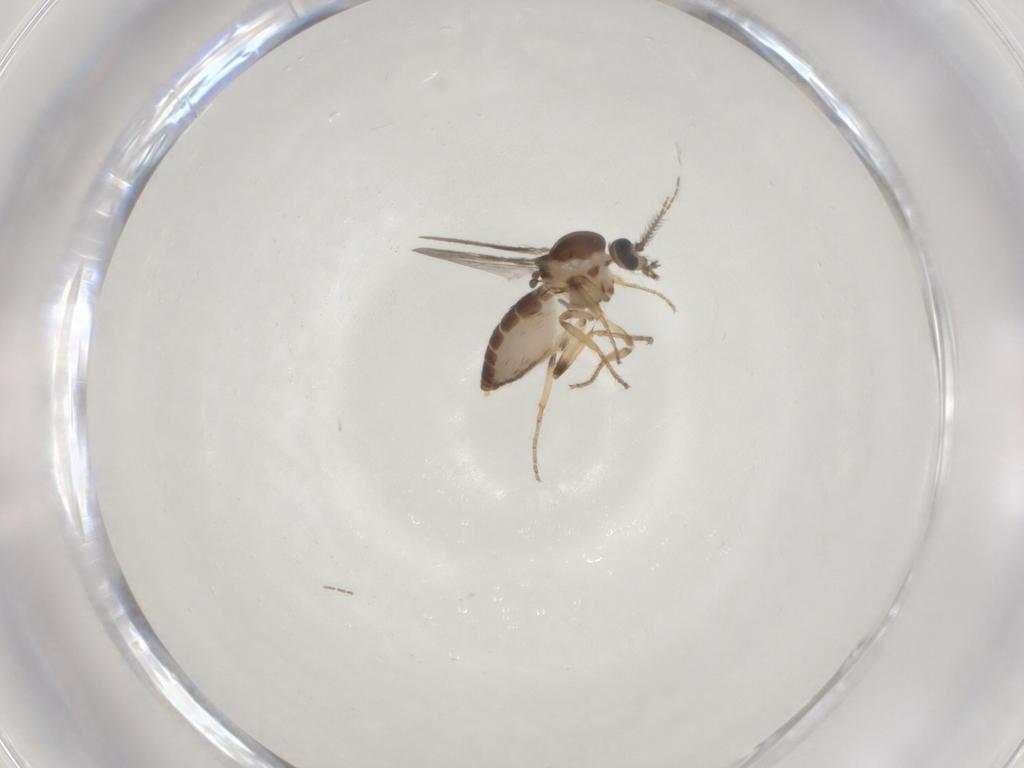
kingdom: Animalia
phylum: Arthropoda
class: Insecta
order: Diptera
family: Ceratopogonidae
